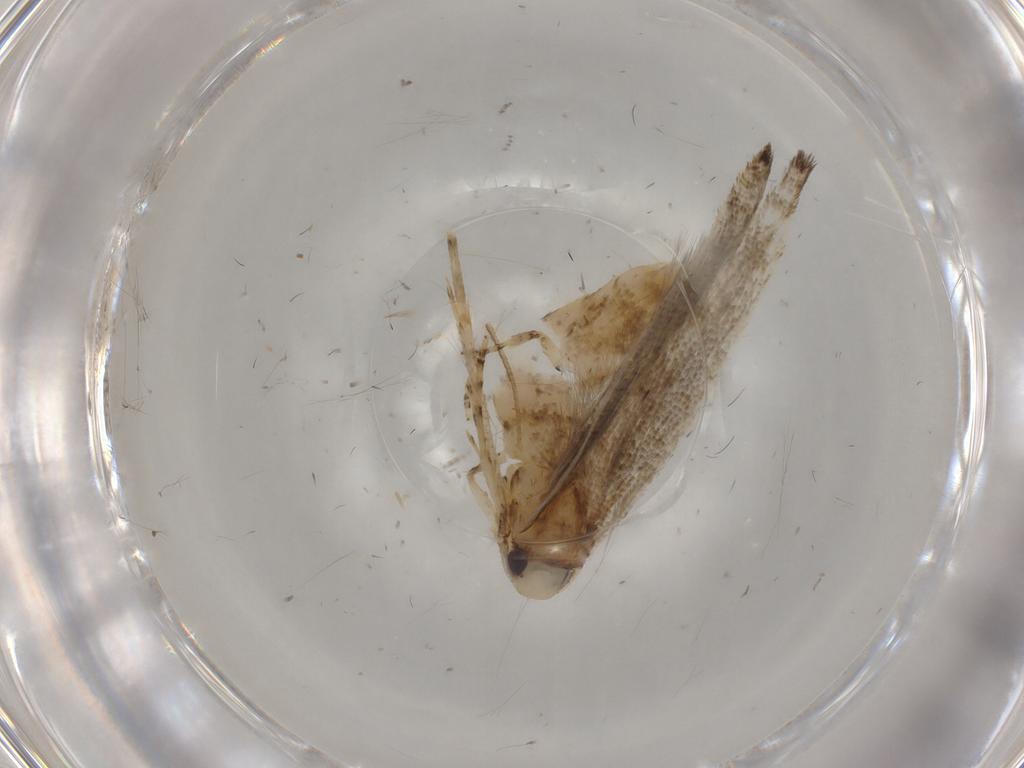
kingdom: Animalia
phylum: Arthropoda
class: Insecta
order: Lepidoptera
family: Cosmopterigidae
